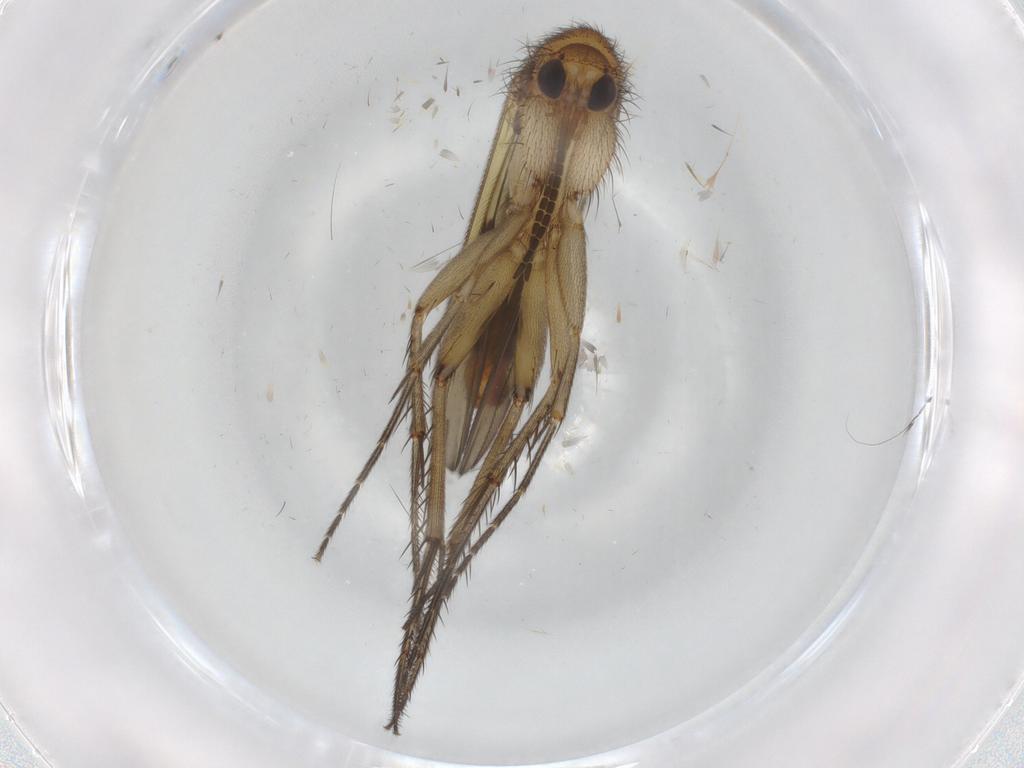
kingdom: Animalia
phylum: Arthropoda
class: Insecta
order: Diptera
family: Mycetophilidae
